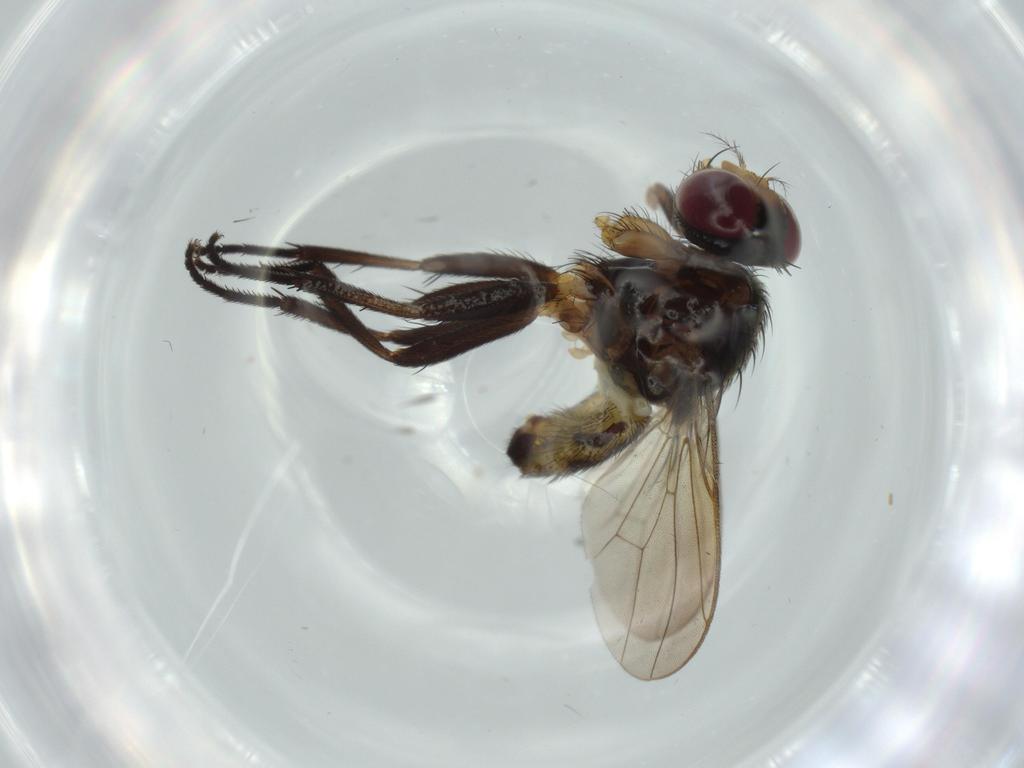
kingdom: Animalia
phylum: Arthropoda
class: Insecta
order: Diptera
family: Anthomyiidae
